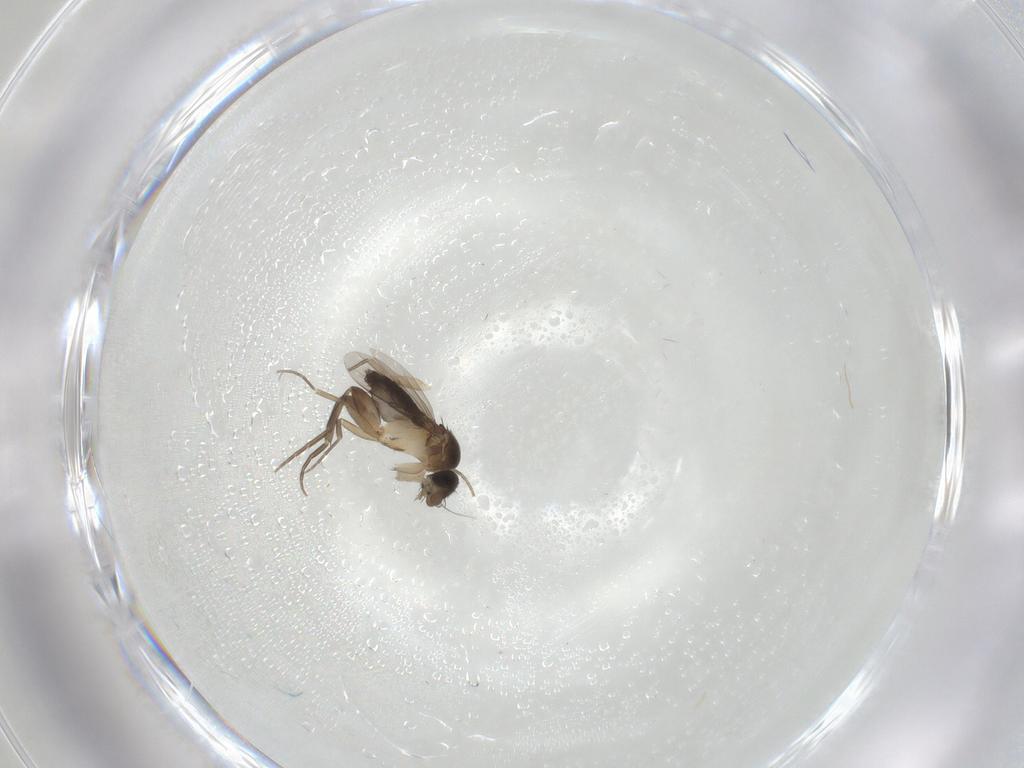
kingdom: Animalia
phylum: Arthropoda
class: Insecta
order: Diptera
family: Phoridae
